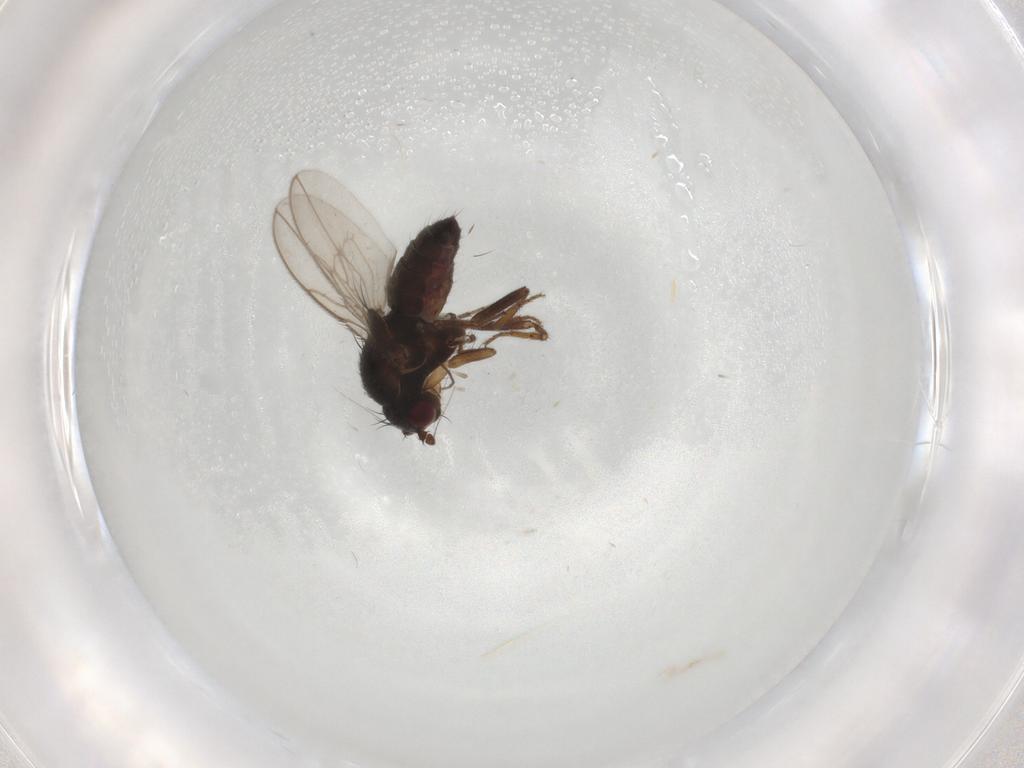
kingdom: Animalia
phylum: Arthropoda
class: Insecta
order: Diptera
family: Sphaeroceridae
